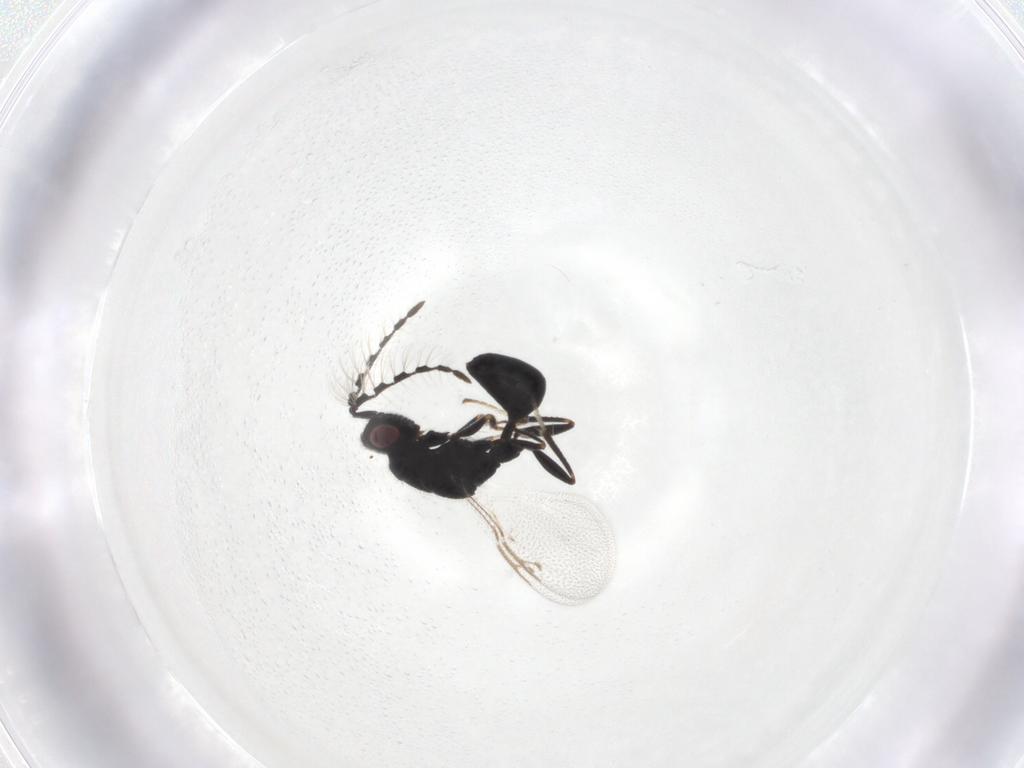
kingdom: Animalia
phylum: Arthropoda
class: Insecta
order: Hymenoptera
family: Eurytomidae
